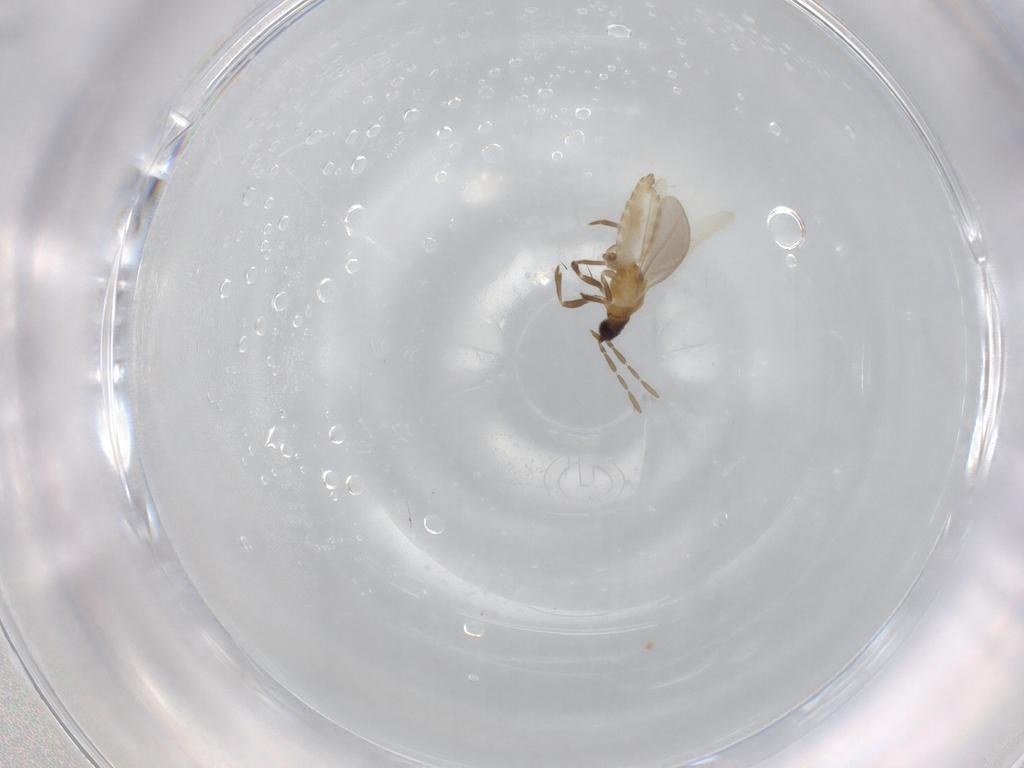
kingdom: Animalia
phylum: Arthropoda
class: Insecta
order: Hemiptera
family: Enicocephalidae
